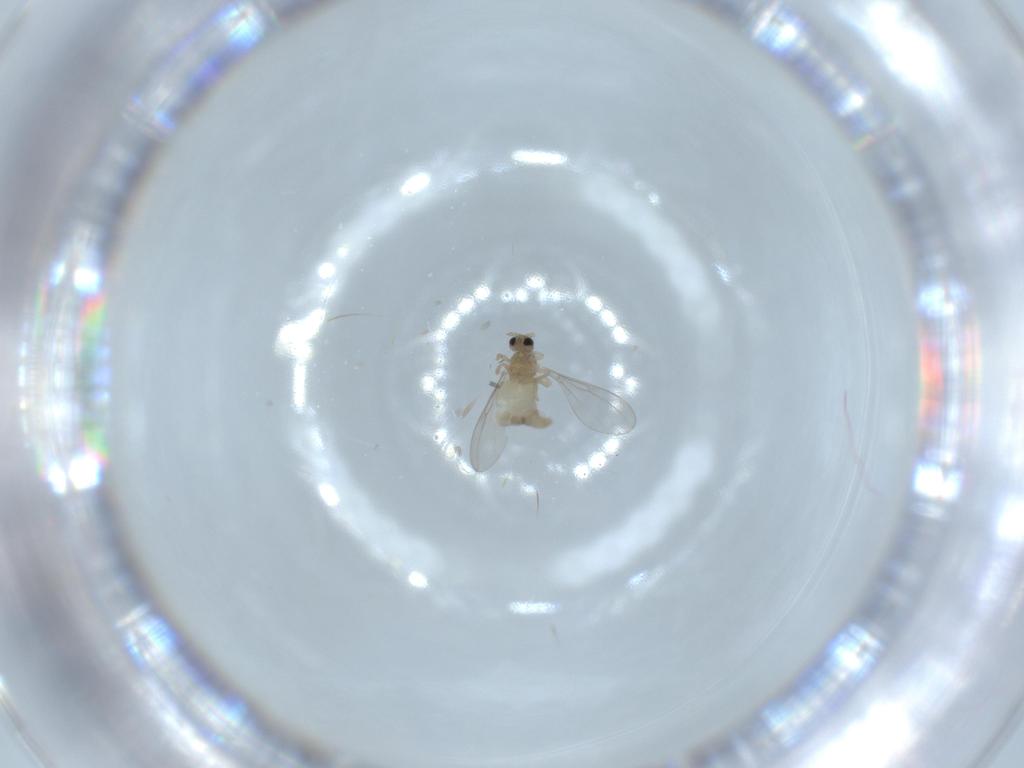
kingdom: Animalia
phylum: Arthropoda
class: Insecta
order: Diptera
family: Cecidomyiidae
